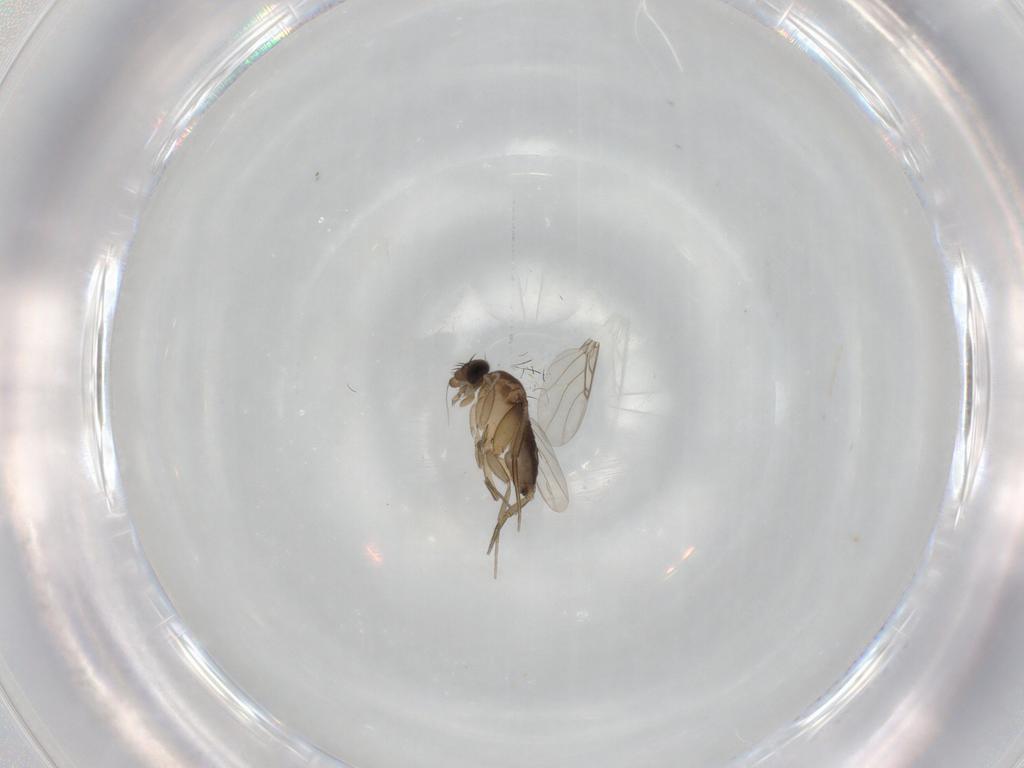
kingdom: Animalia
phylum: Arthropoda
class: Insecta
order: Diptera
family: Phoridae
